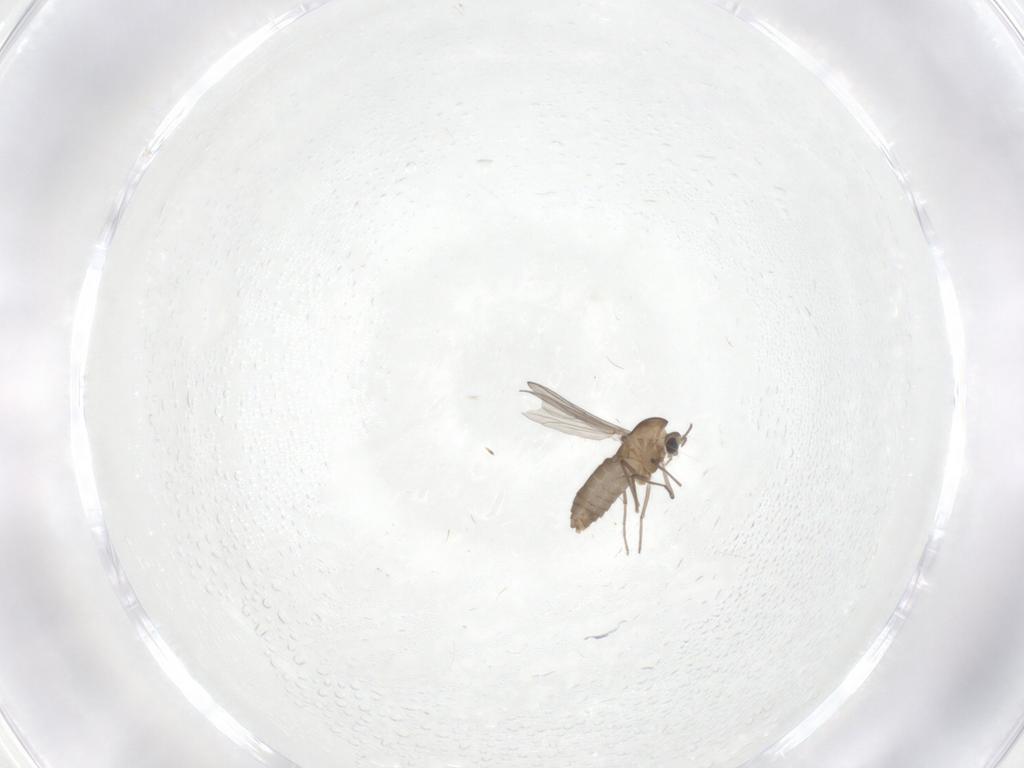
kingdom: Animalia
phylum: Arthropoda
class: Insecta
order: Diptera
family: Chironomidae
